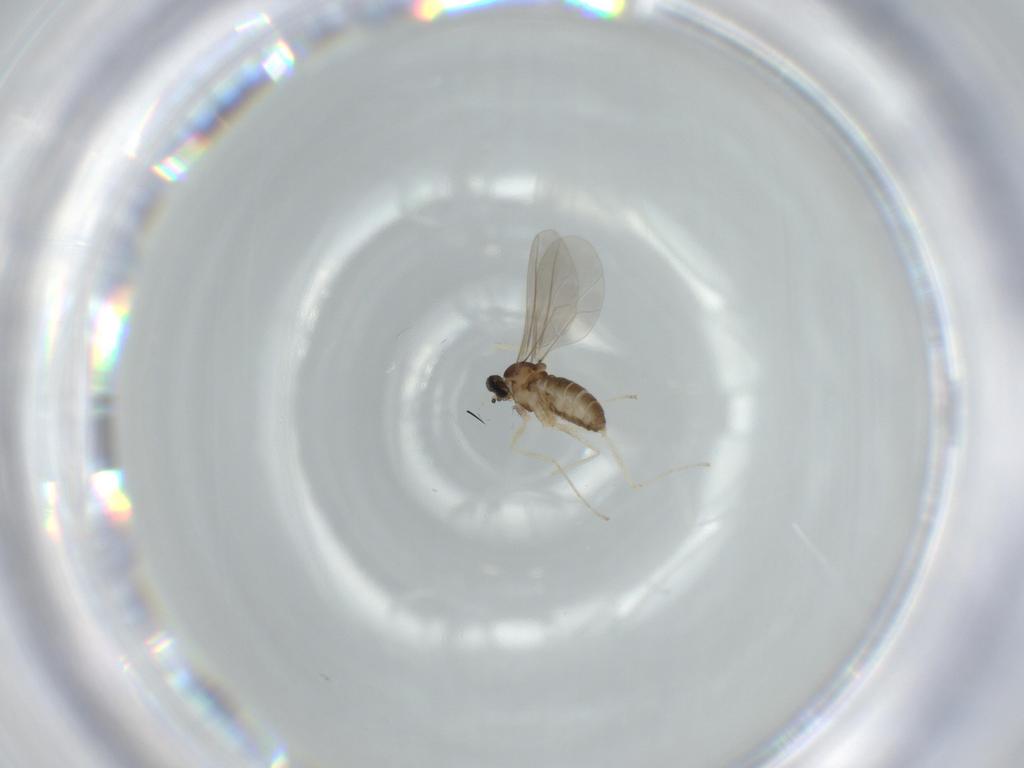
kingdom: Animalia
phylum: Arthropoda
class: Insecta
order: Diptera
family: Cecidomyiidae
